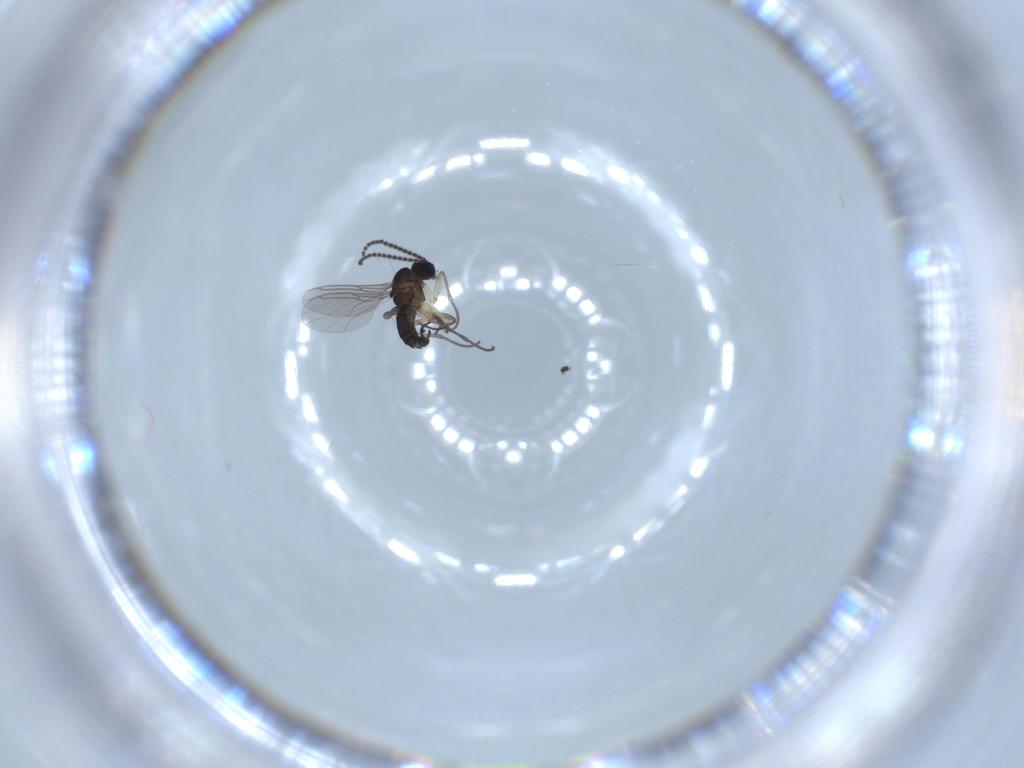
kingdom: Animalia
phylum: Arthropoda
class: Insecta
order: Diptera
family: Sciaridae
